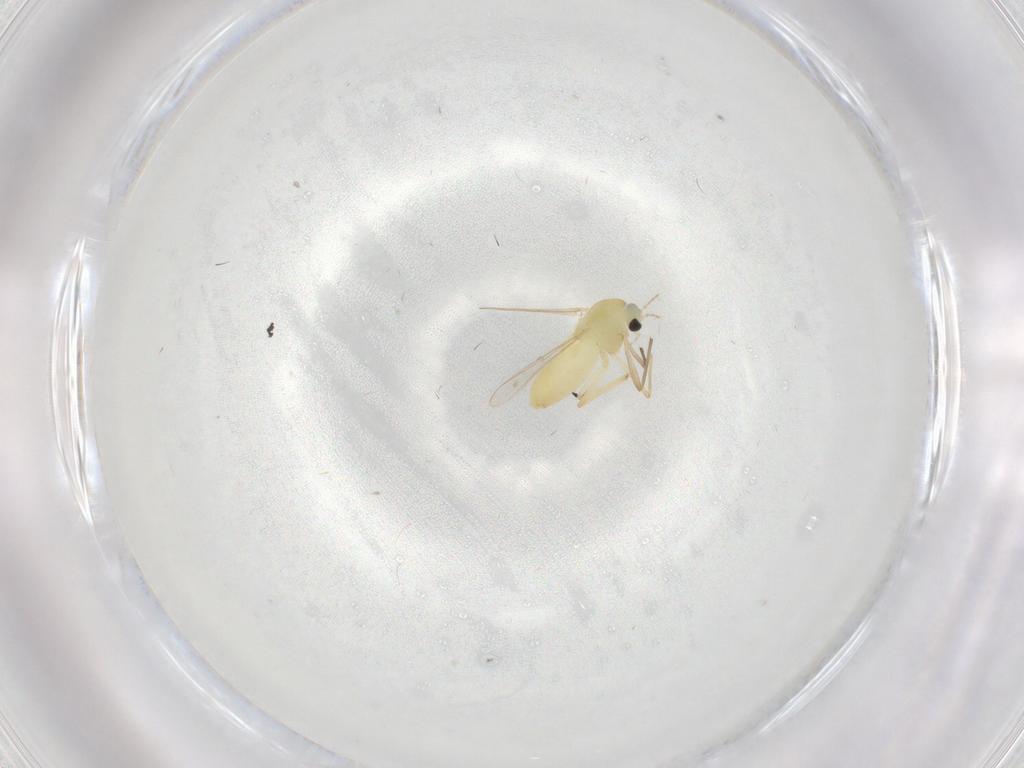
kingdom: Animalia
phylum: Arthropoda
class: Insecta
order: Diptera
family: Chironomidae
